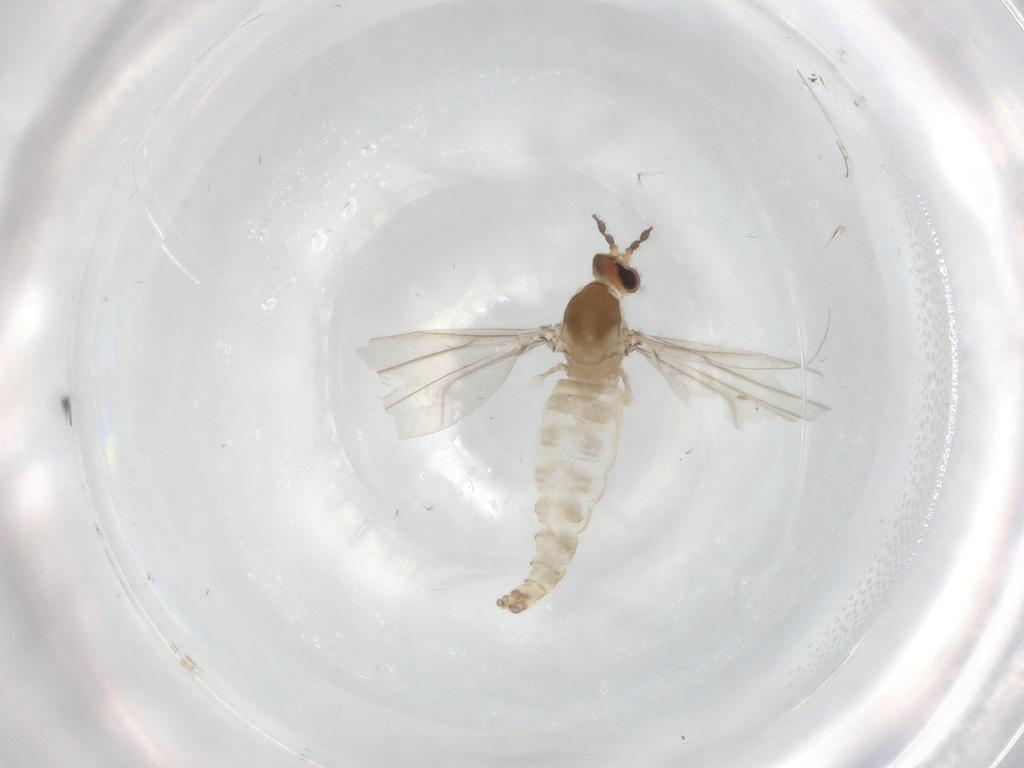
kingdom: Animalia
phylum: Arthropoda
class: Insecta
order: Diptera
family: Cecidomyiidae
